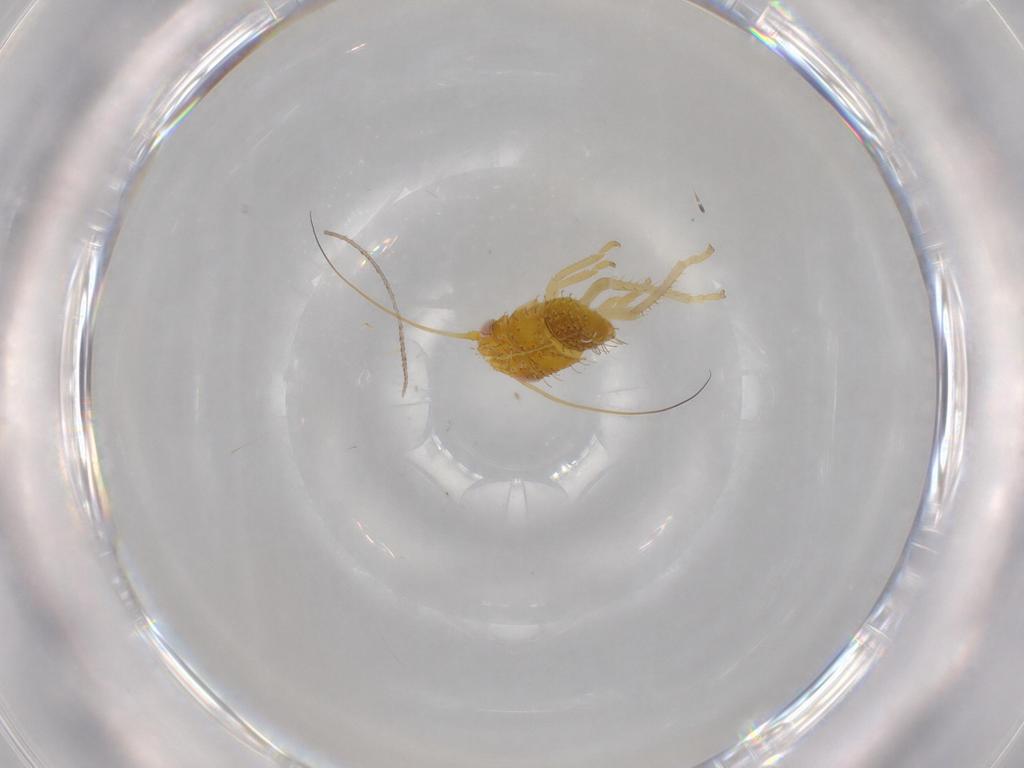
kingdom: Animalia
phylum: Arthropoda
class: Insecta
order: Hemiptera
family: Cicadellidae
